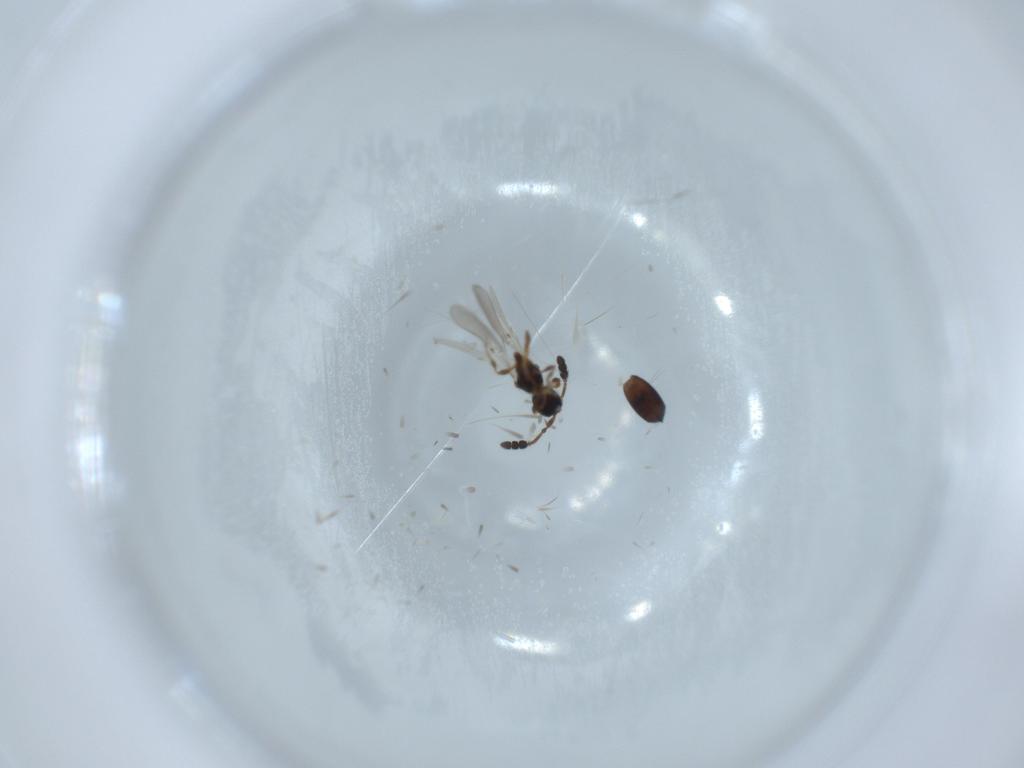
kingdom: Animalia
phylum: Arthropoda
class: Insecta
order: Hymenoptera
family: Diapriidae
